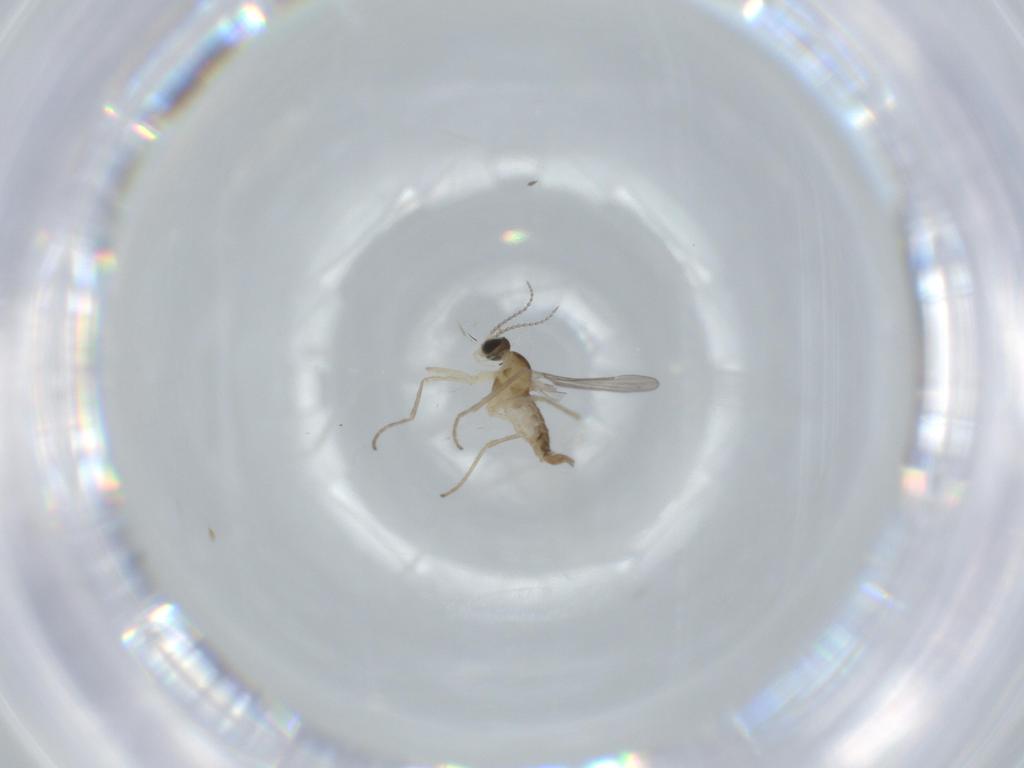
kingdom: Animalia
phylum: Arthropoda
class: Insecta
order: Diptera
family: Cecidomyiidae
